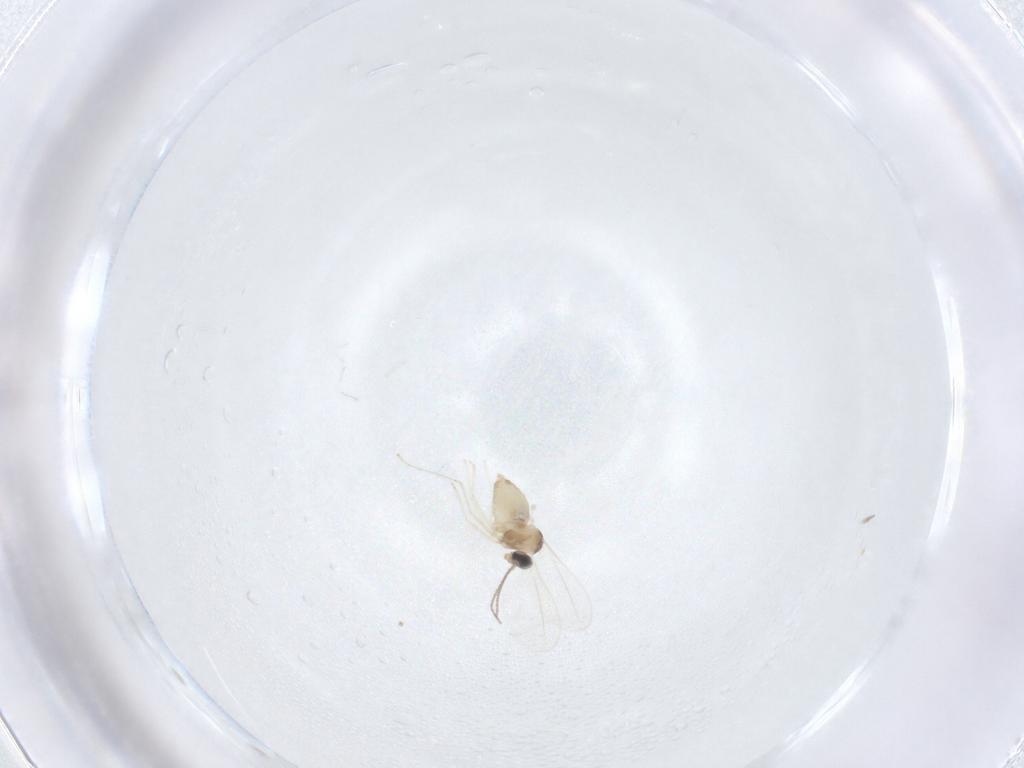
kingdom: Animalia
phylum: Arthropoda
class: Insecta
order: Diptera
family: Cecidomyiidae
